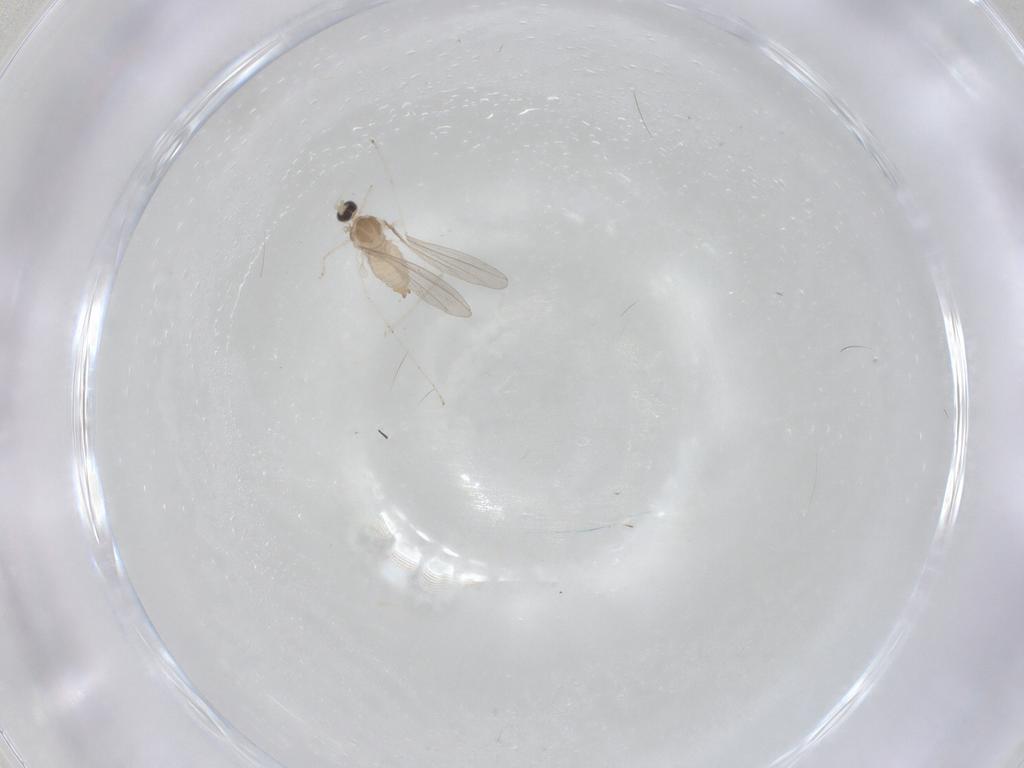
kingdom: Animalia
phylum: Arthropoda
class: Insecta
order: Diptera
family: Cecidomyiidae
